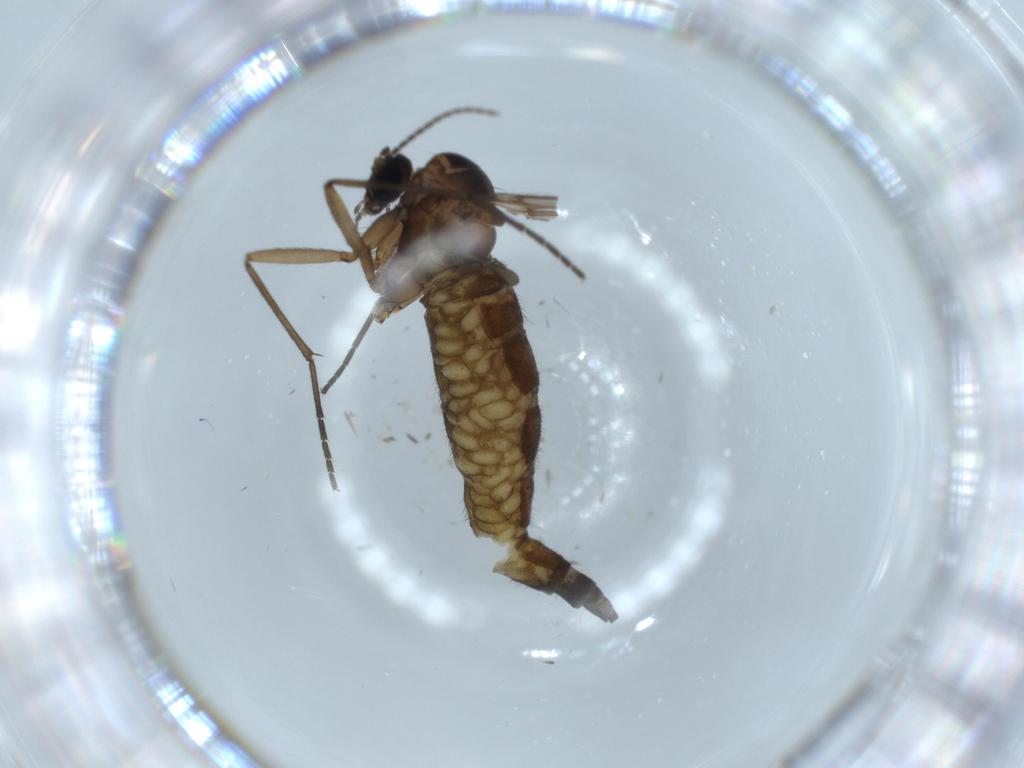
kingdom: Animalia
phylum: Arthropoda
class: Insecta
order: Diptera
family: Sciaridae
